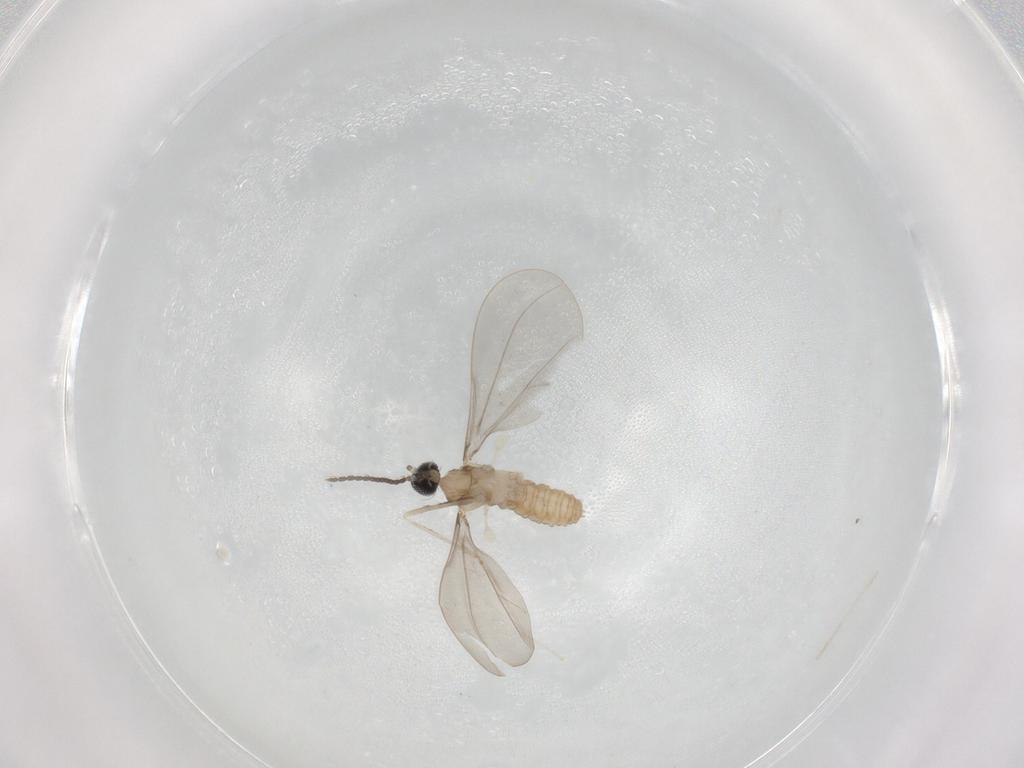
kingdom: Animalia
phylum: Arthropoda
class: Insecta
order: Diptera
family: Cecidomyiidae
